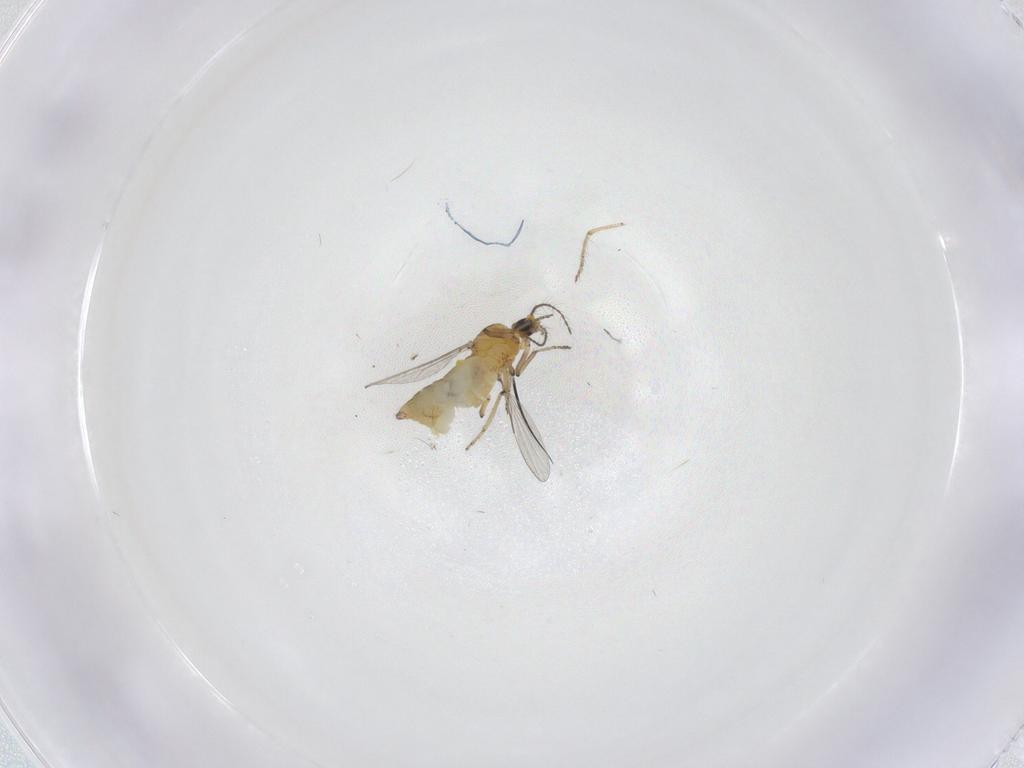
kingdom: Animalia
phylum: Arthropoda
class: Insecta
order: Diptera
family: Ceratopogonidae
